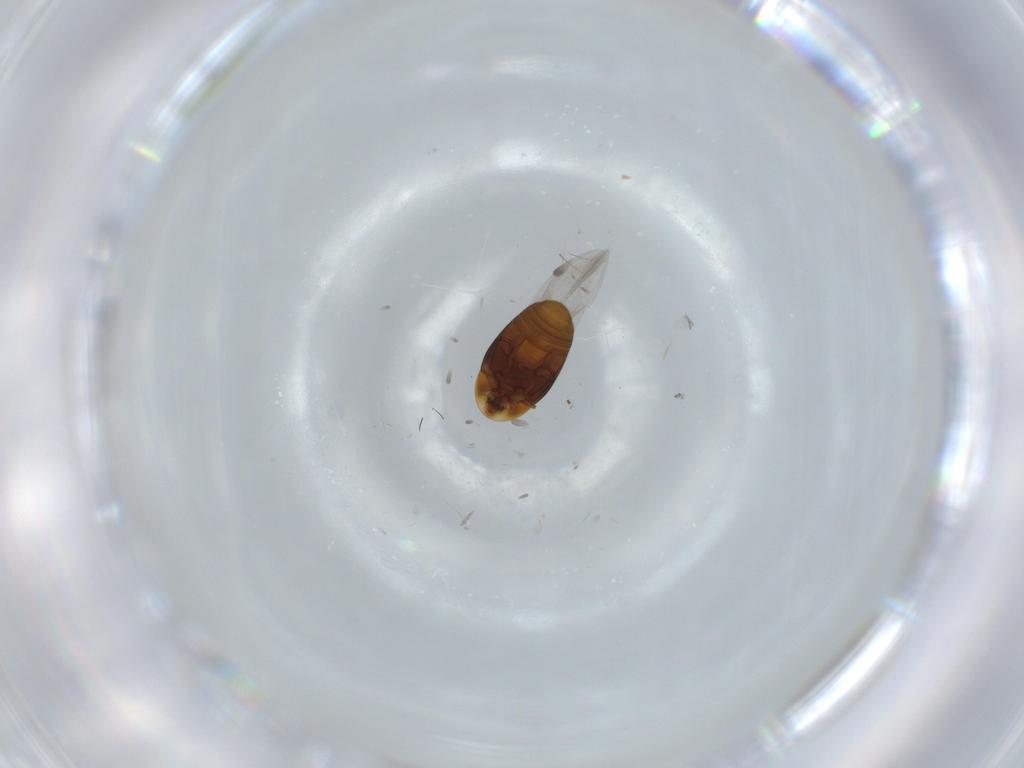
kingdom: Animalia
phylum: Arthropoda
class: Insecta
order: Coleoptera
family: Corylophidae
